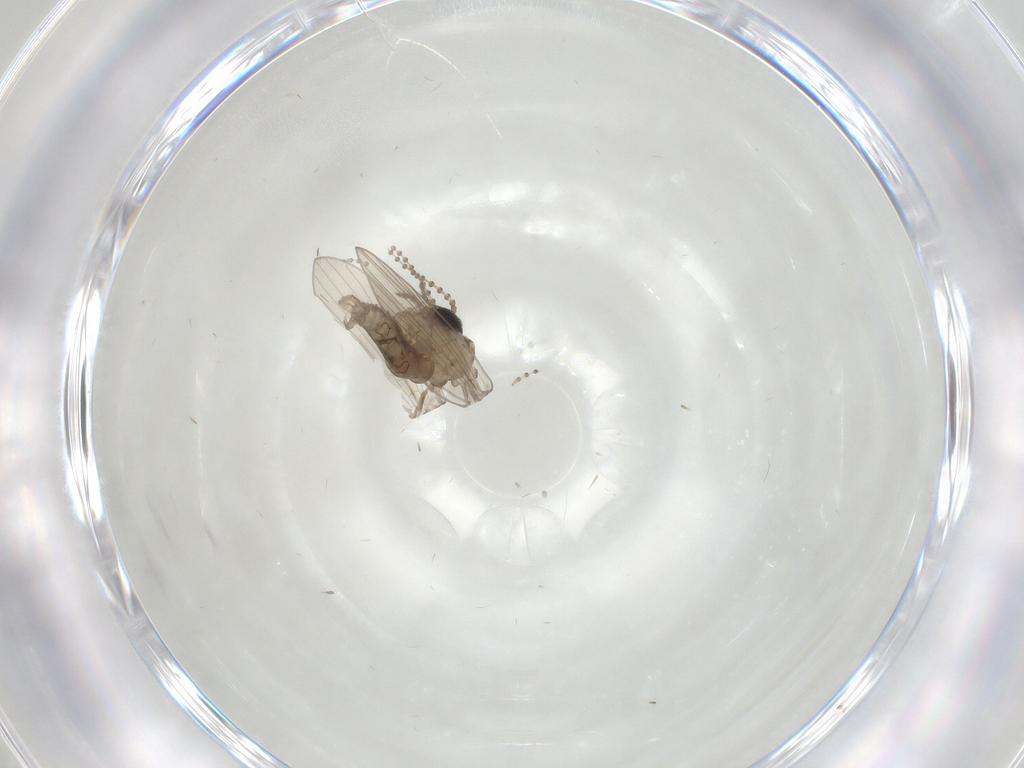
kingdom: Animalia
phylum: Arthropoda
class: Insecta
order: Diptera
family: Psychodidae
